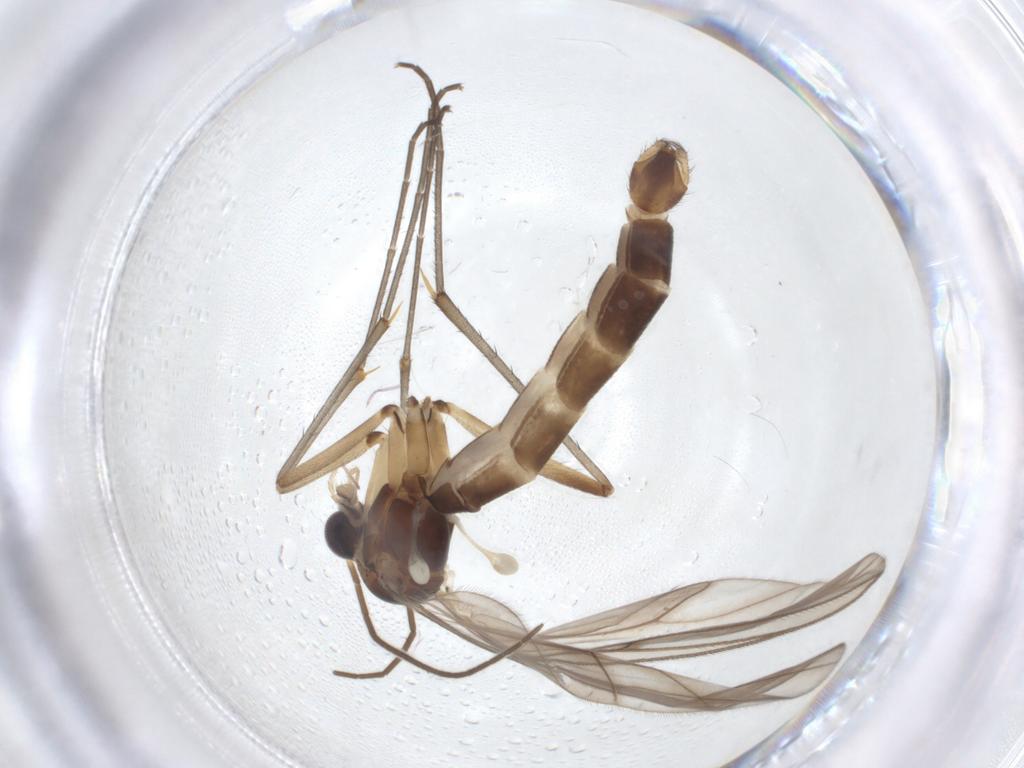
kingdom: Animalia
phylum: Arthropoda
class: Insecta
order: Diptera
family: Mycetophilidae
